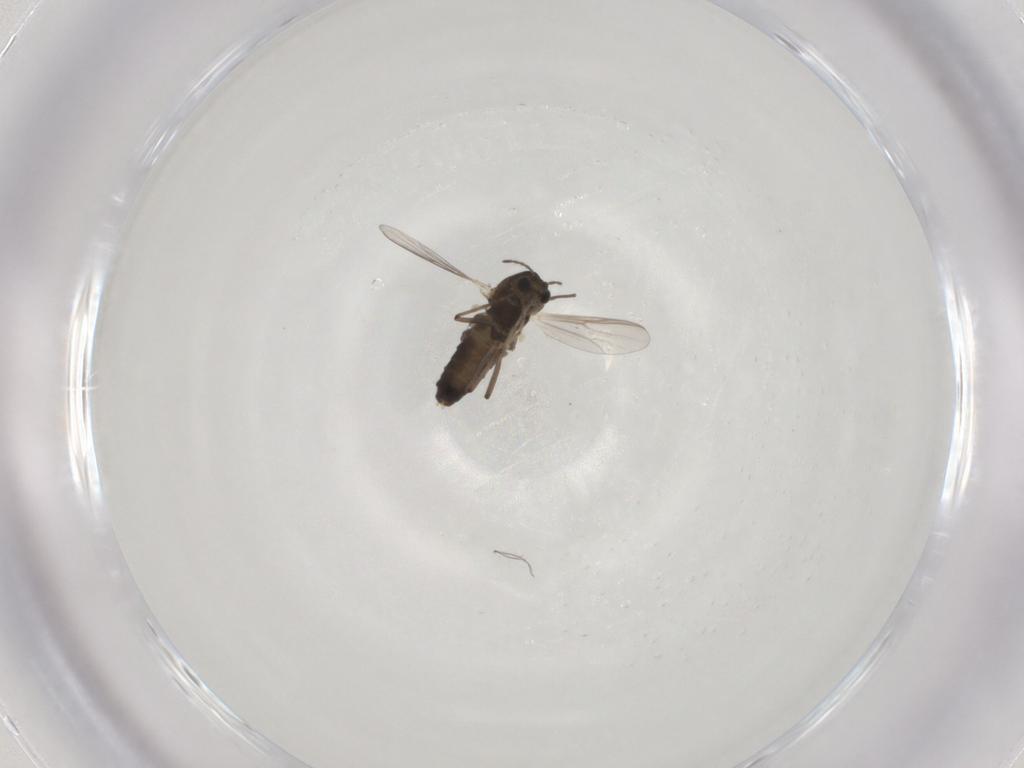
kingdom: Animalia
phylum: Arthropoda
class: Insecta
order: Diptera
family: Chironomidae
